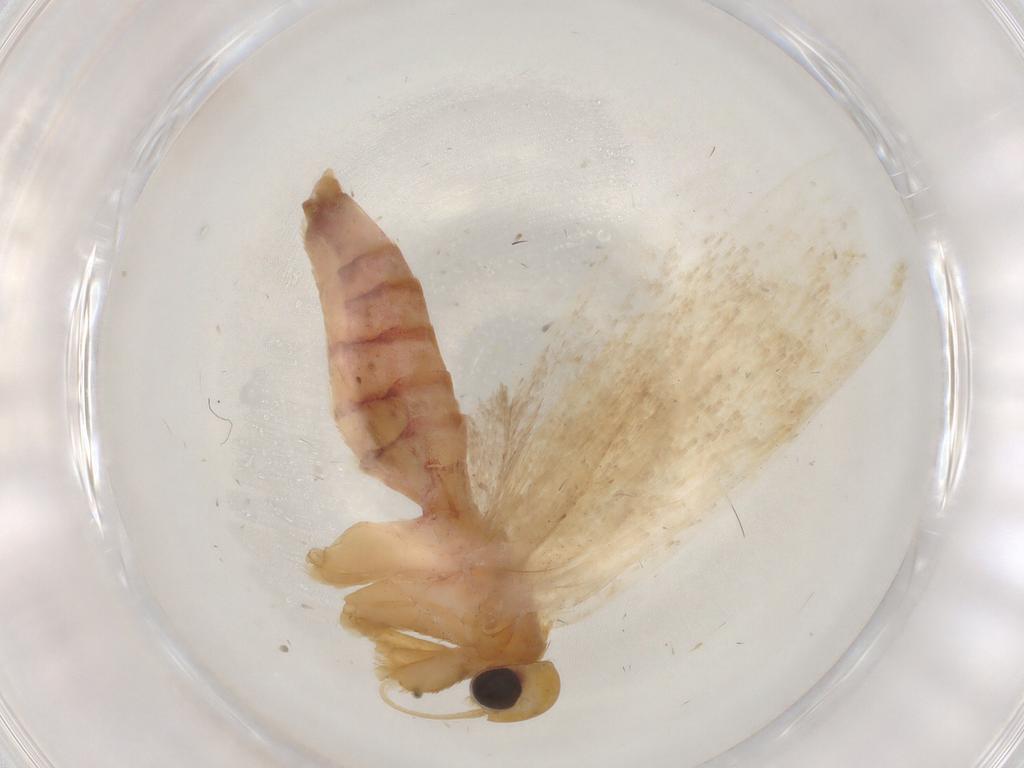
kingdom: Animalia
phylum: Arthropoda
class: Insecta
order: Lepidoptera
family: Autostichidae
